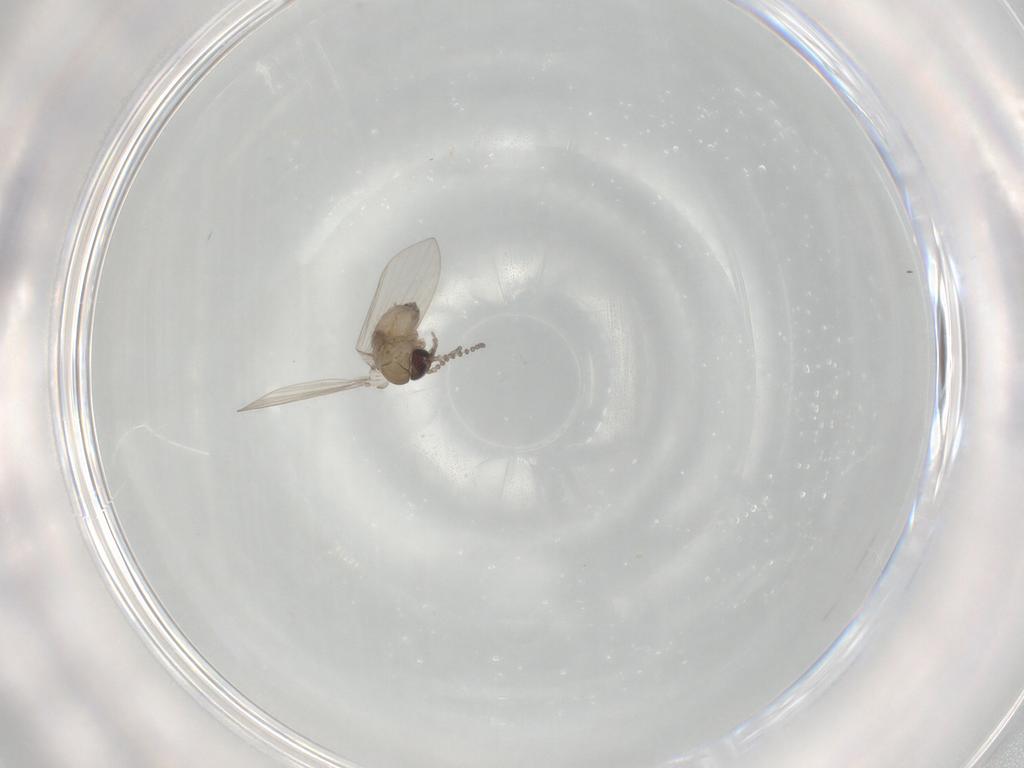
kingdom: Animalia
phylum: Arthropoda
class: Insecta
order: Diptera
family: Psychodidae
